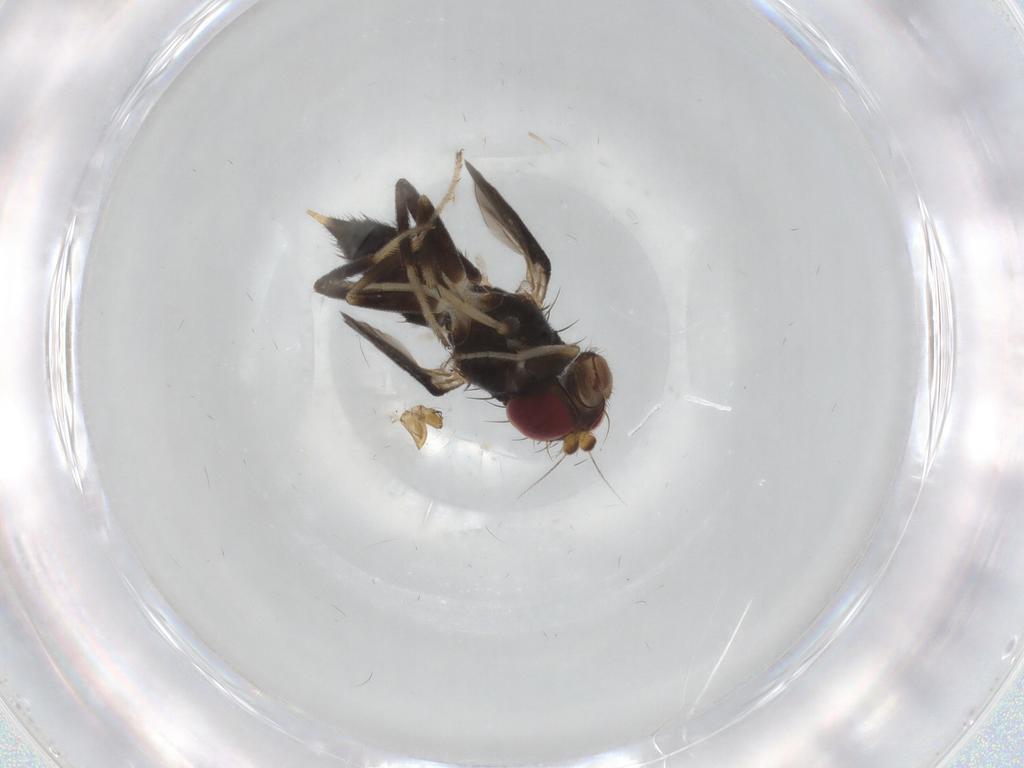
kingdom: Animalia
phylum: Arthropoda
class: Insecta
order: Diptera
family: Clusiidae
